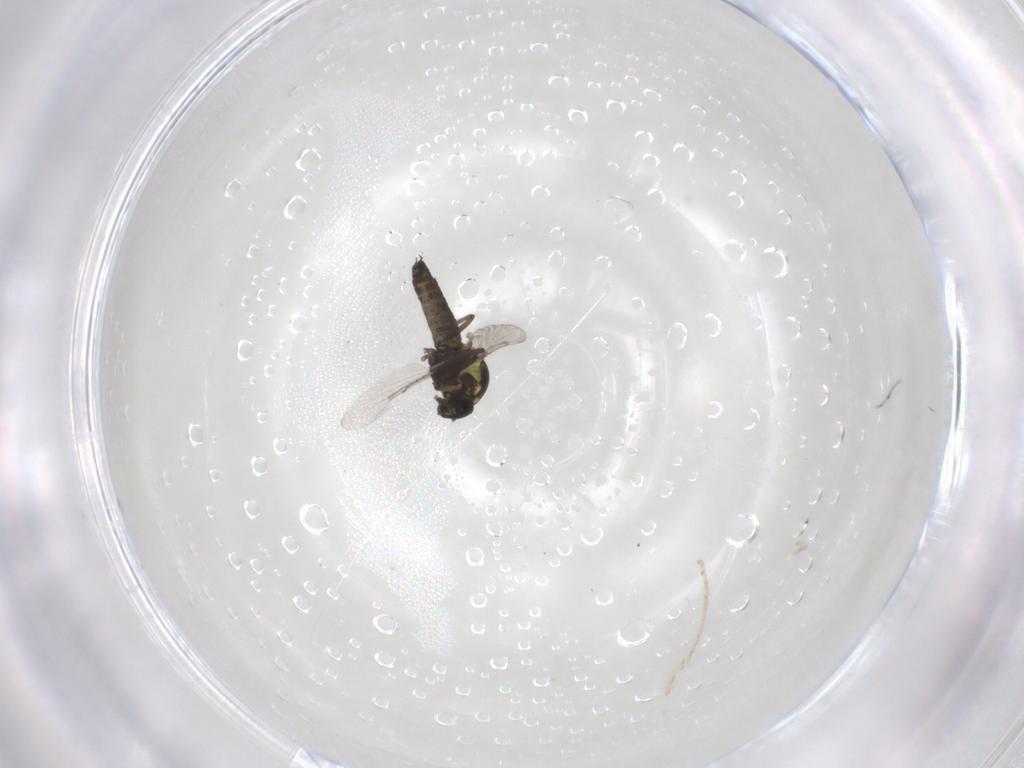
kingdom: Animalia
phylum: Arthropoda
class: Insecta
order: Diptera
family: Ceratopogonidae
